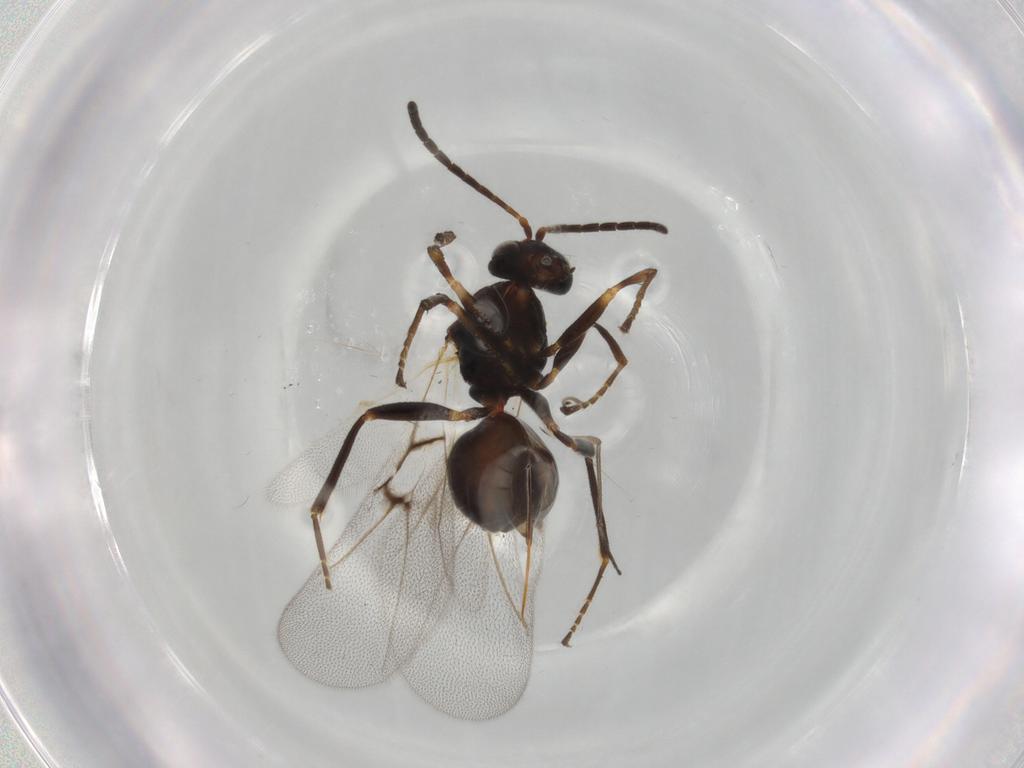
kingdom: Animalia
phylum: Arthropoda
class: Insecta
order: Hymenoptera
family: Cynipidae
